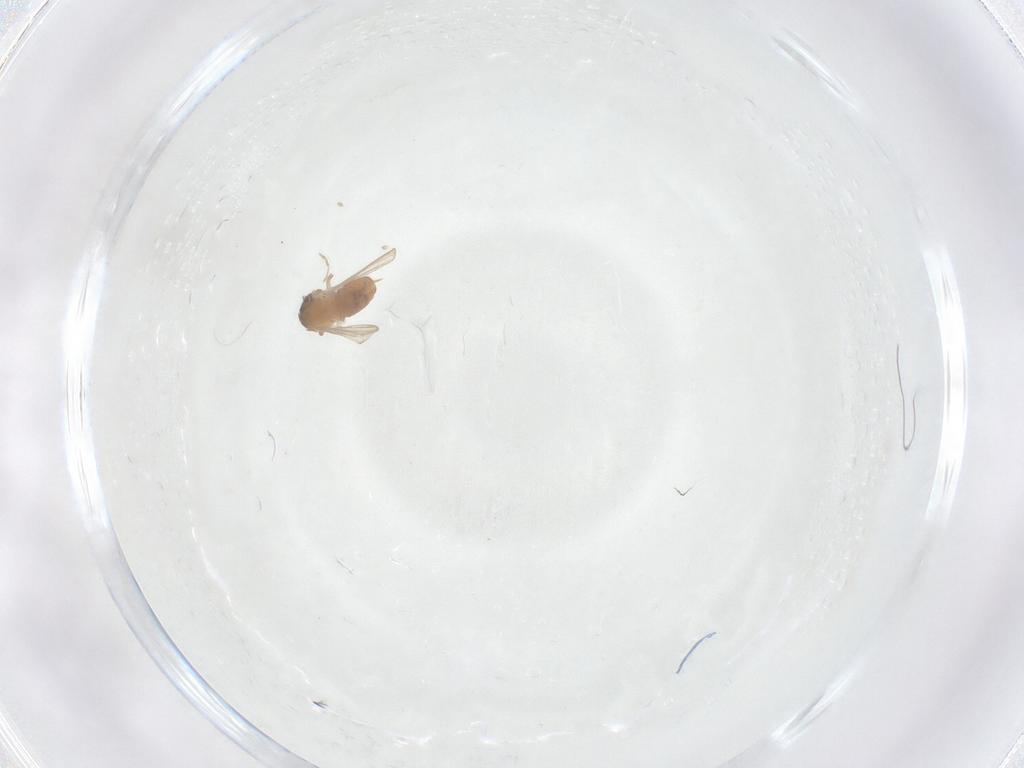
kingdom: Animalia
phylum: Arthropoda
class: Insecta
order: Diptera
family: Psychodidae
